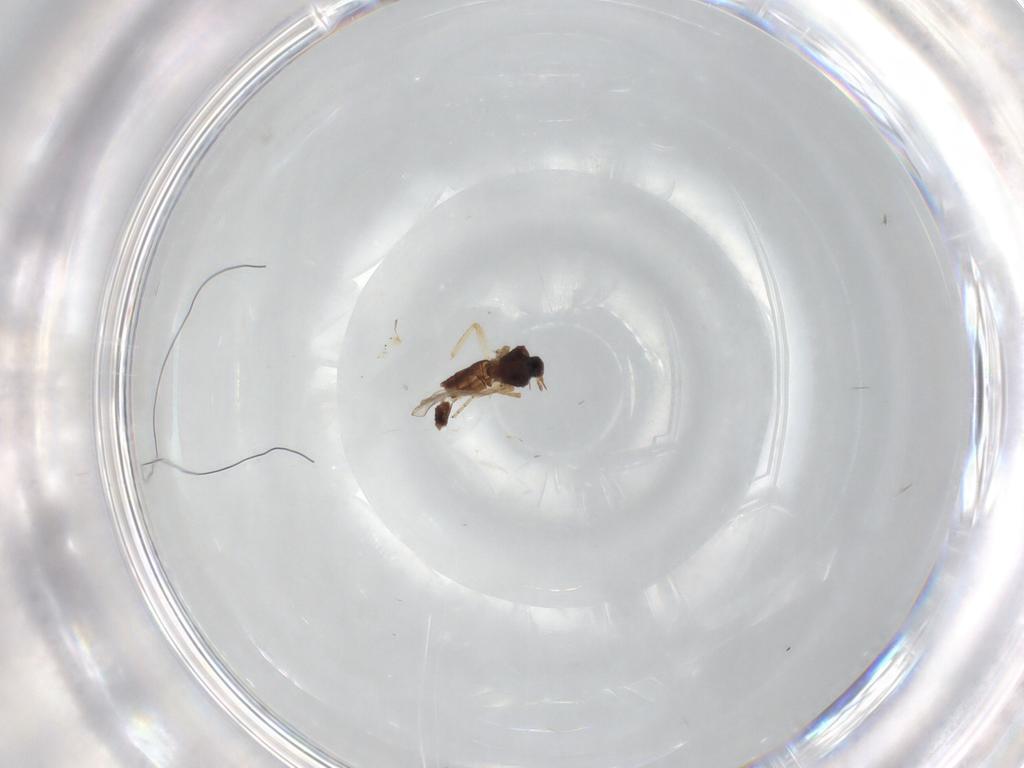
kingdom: Animalia
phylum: Arthropoda
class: Insecta
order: Diptera
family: Ceratopogonidae
